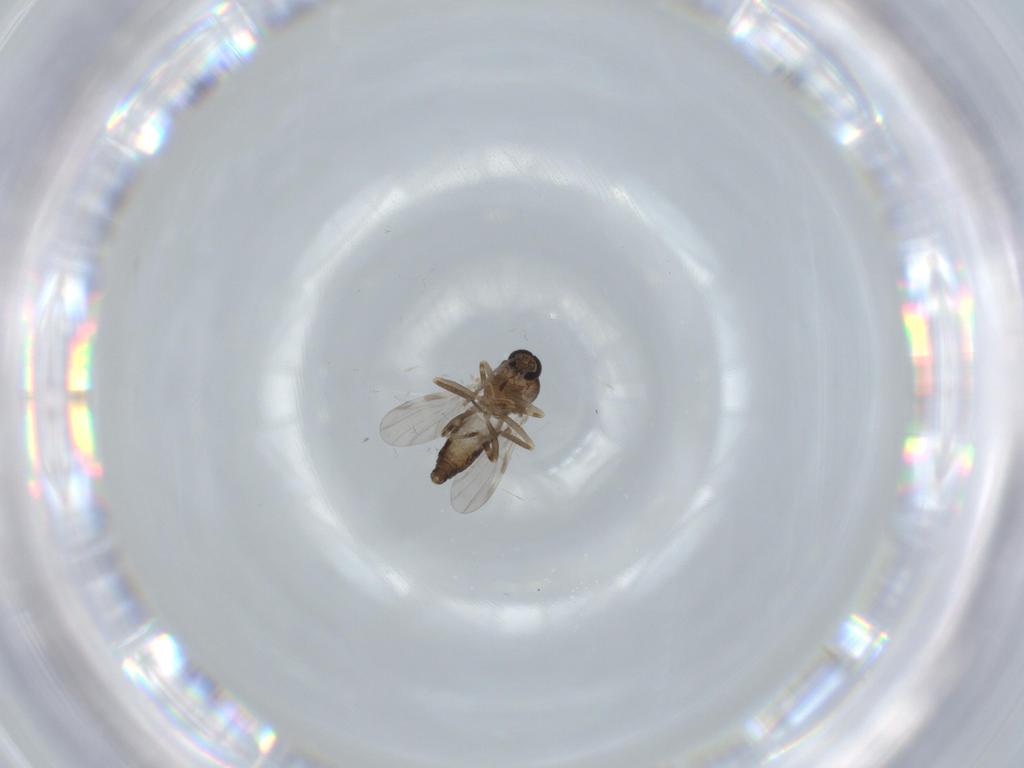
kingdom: Animalia
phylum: Arthropoda
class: Insecta
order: Diptera
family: Ceratopogonidae
